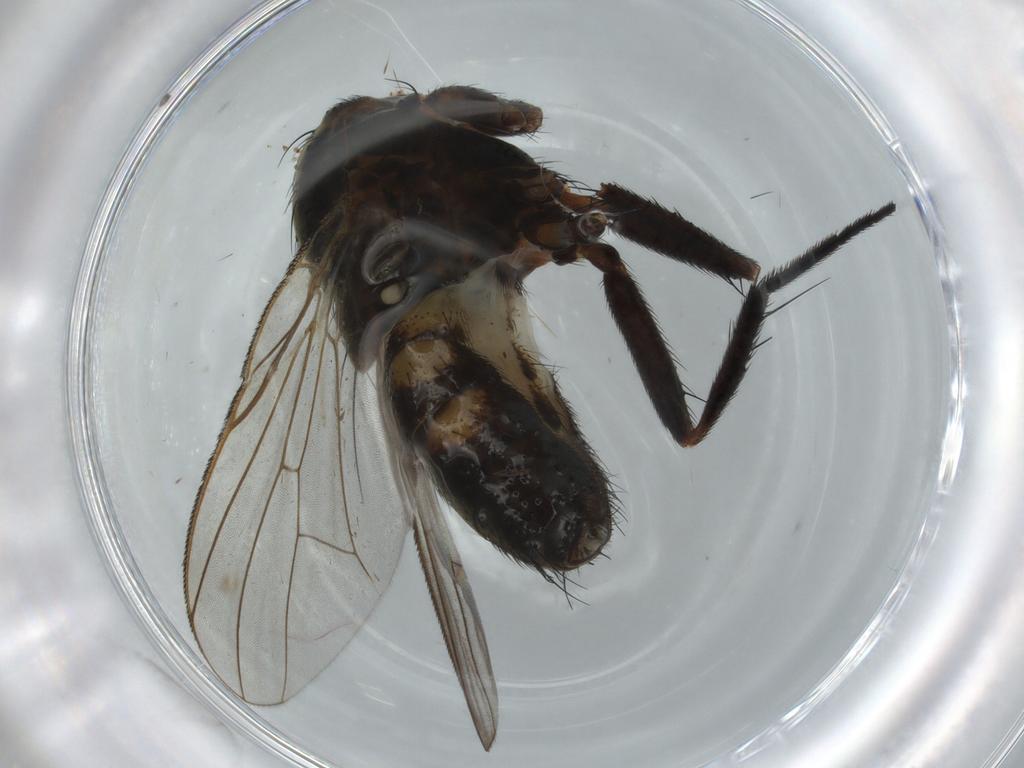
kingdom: Animalia
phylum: Arthropoda
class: Insecta
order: Diptera
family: Fannia
